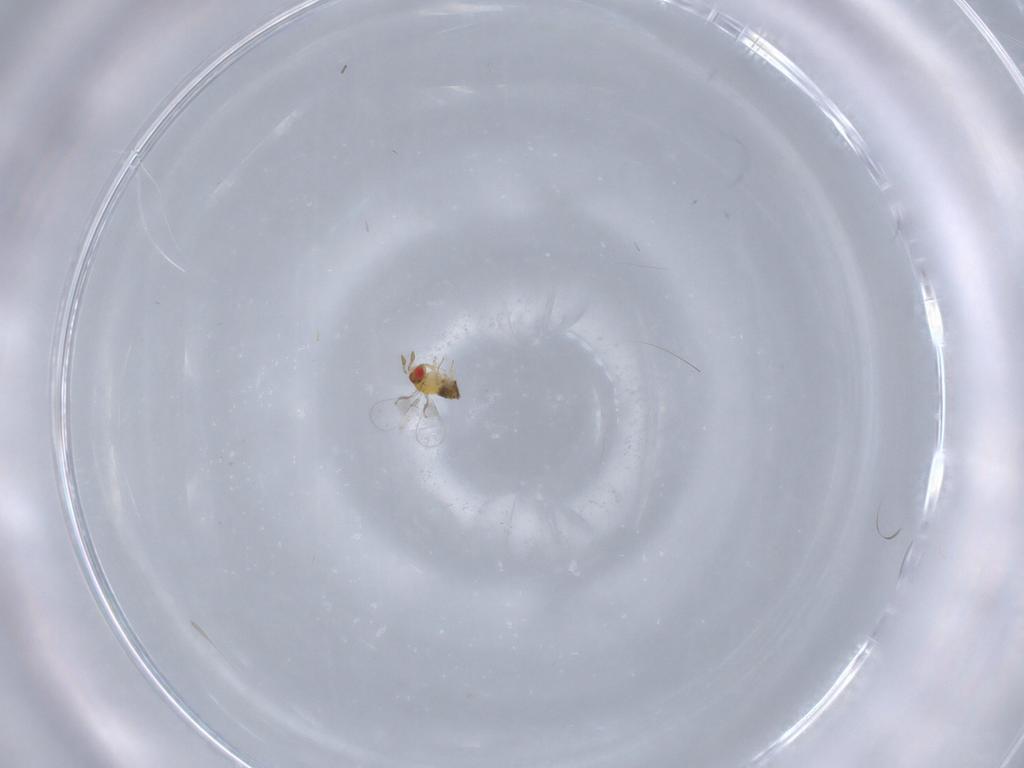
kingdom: Animalia
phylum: Arthropoda
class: Insecta
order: Hymenoptera
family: Trichogrammatidae
